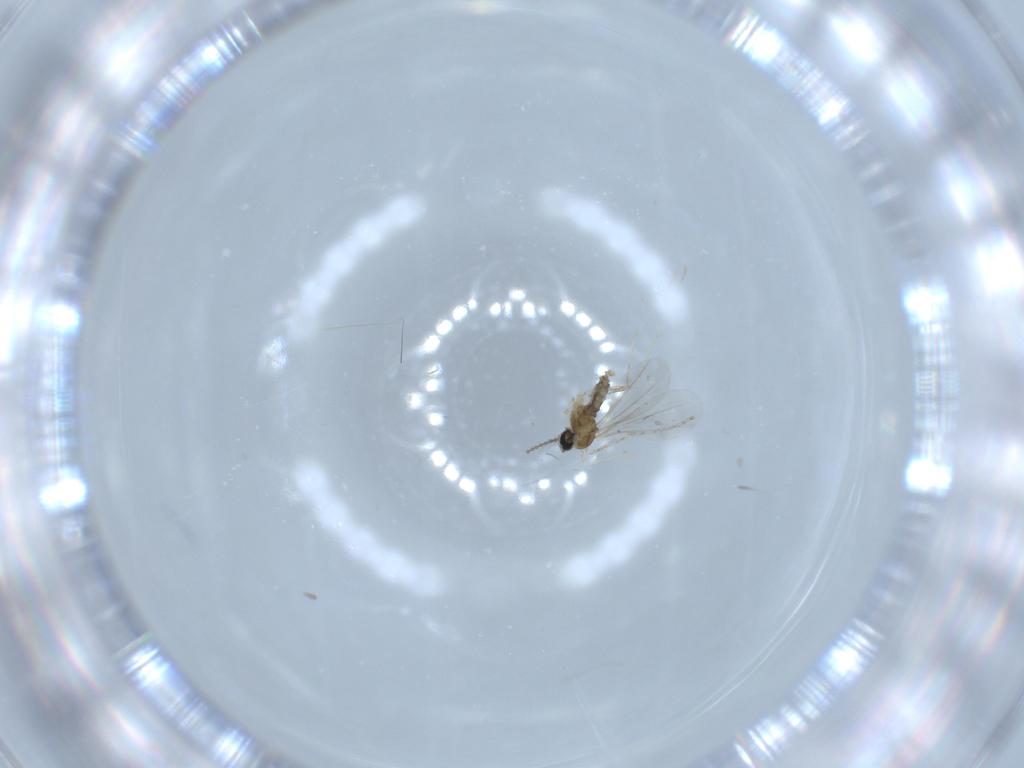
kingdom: Animalia
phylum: Arthropoda
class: Insecta
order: Diptera
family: Cecidomyiidae
